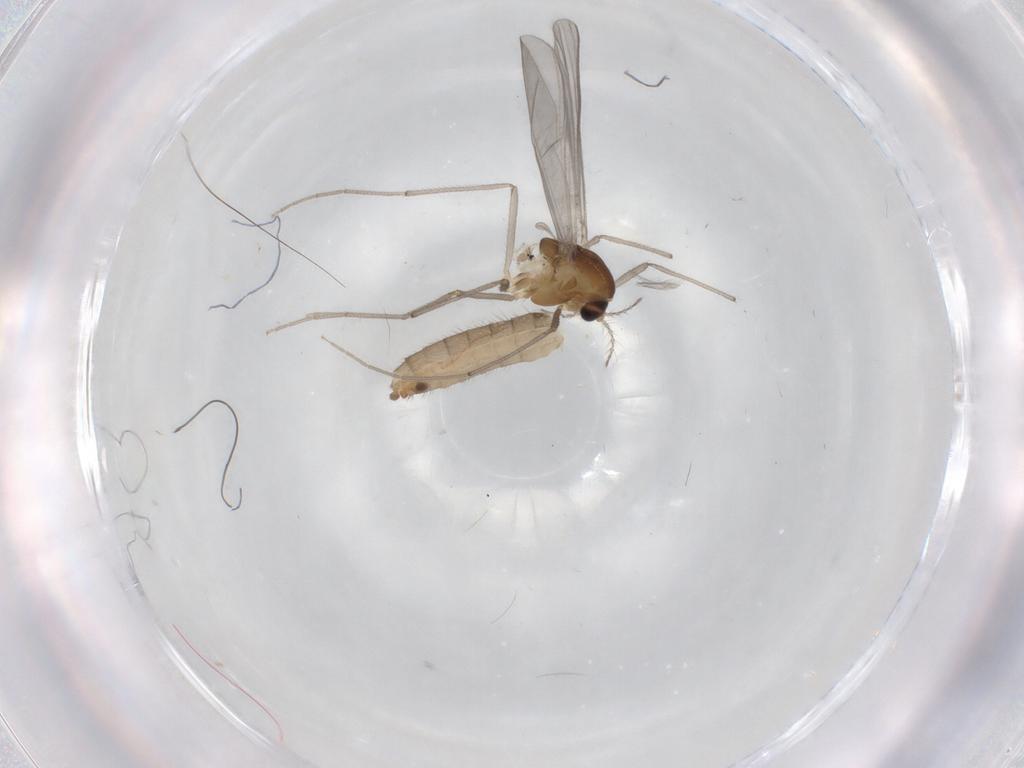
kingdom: Animalia
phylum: Arthropoda
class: Insecta
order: Diptera
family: Chironomidae
